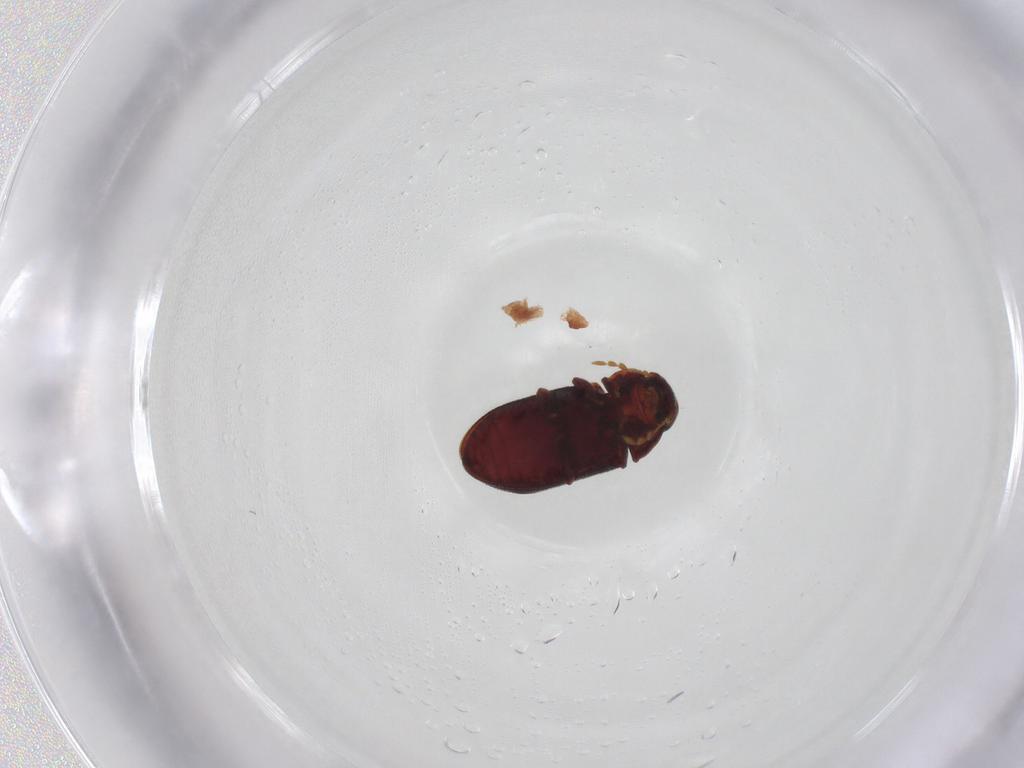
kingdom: Animalia
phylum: Arthropoda
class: Insecta
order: Coleoptera
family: Ptinidae
